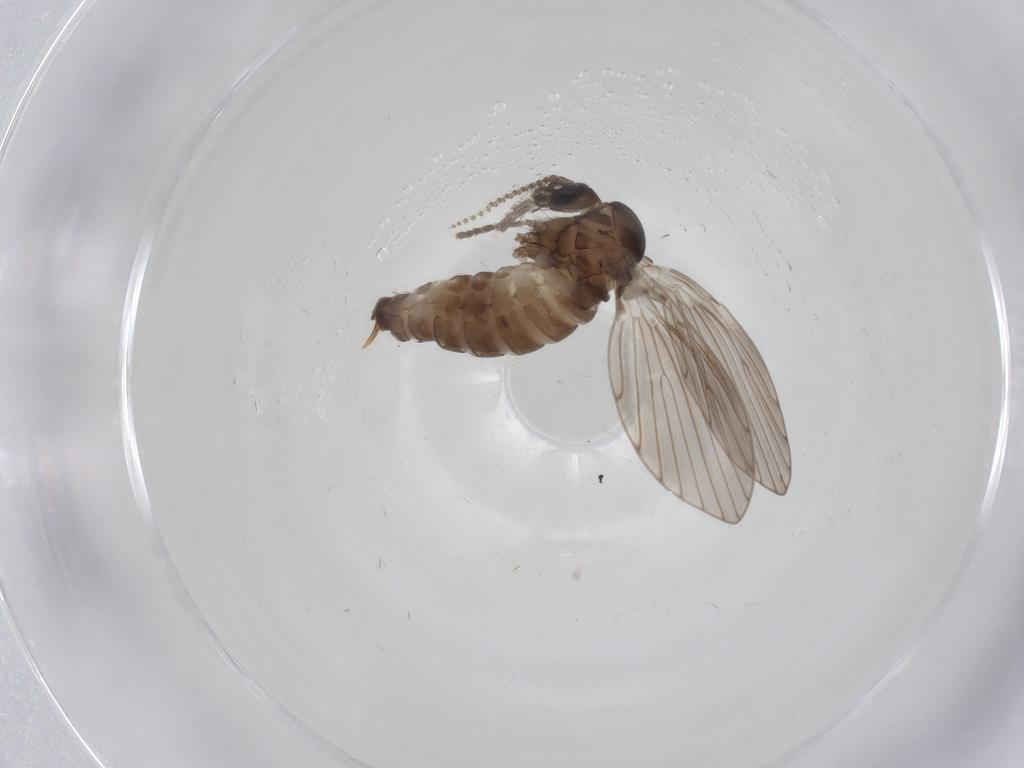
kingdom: Animalia
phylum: Arthropoda
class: Insecta
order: Diptera
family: Psychodidae
